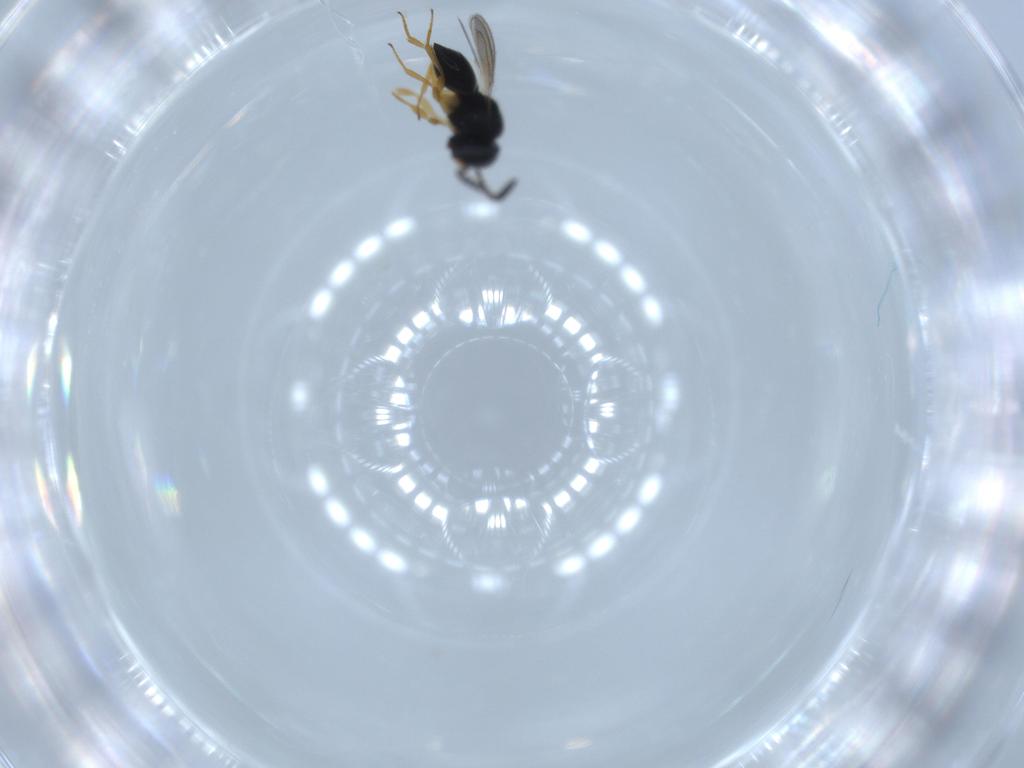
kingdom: Animalia
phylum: Arthropoda
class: Insecta
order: Hymenoptera
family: Scelionidae
